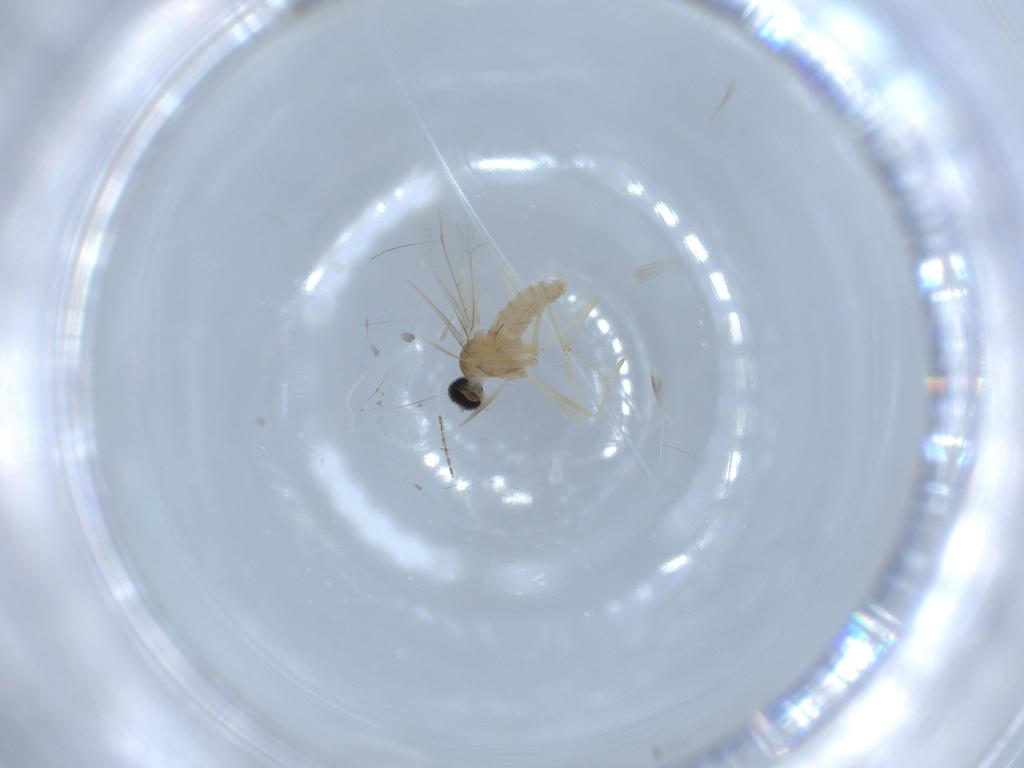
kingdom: Animalia
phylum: Arthropoda
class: Insecta
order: Diptera
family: Cecidomyiidae
